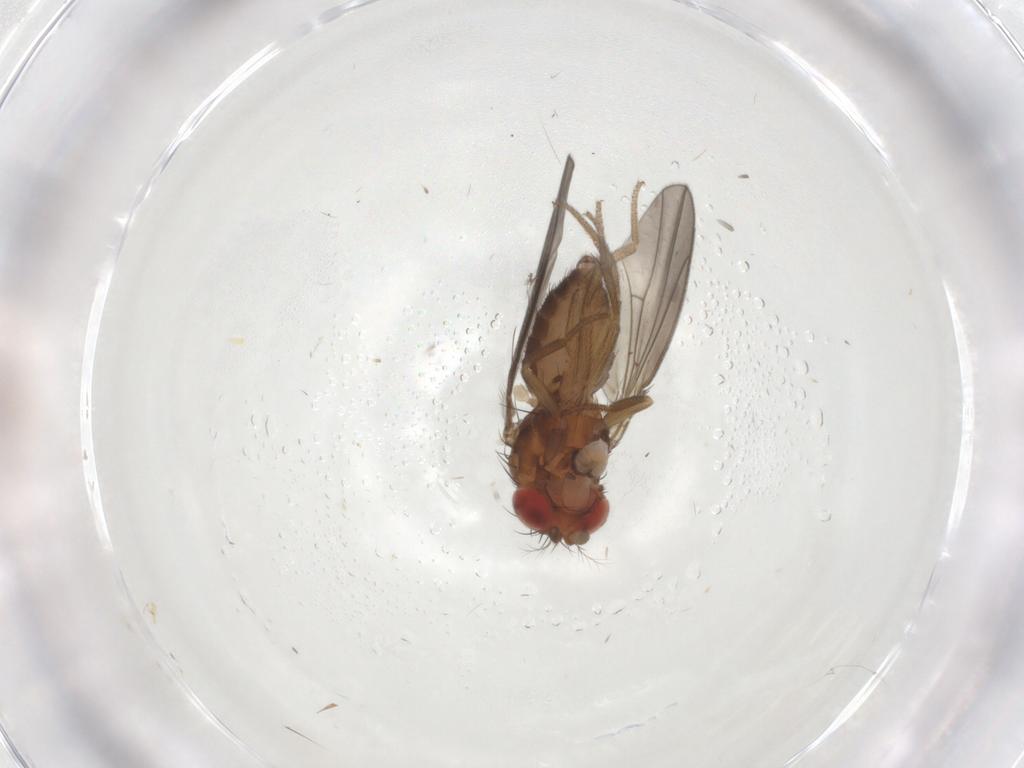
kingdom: Animalia
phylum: Arthropoda
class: Insecta
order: Diptera
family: Drosophilidae
